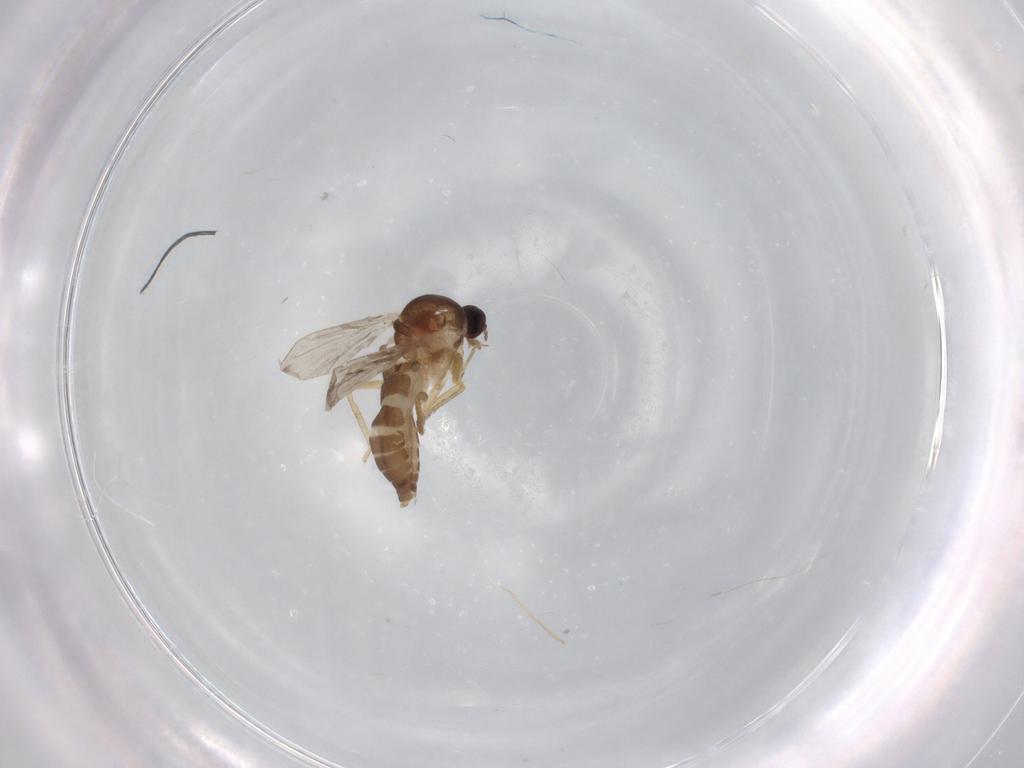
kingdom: Animalia
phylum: Arthropoda
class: Insecta
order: Diptera
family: Ceratopogonidae
